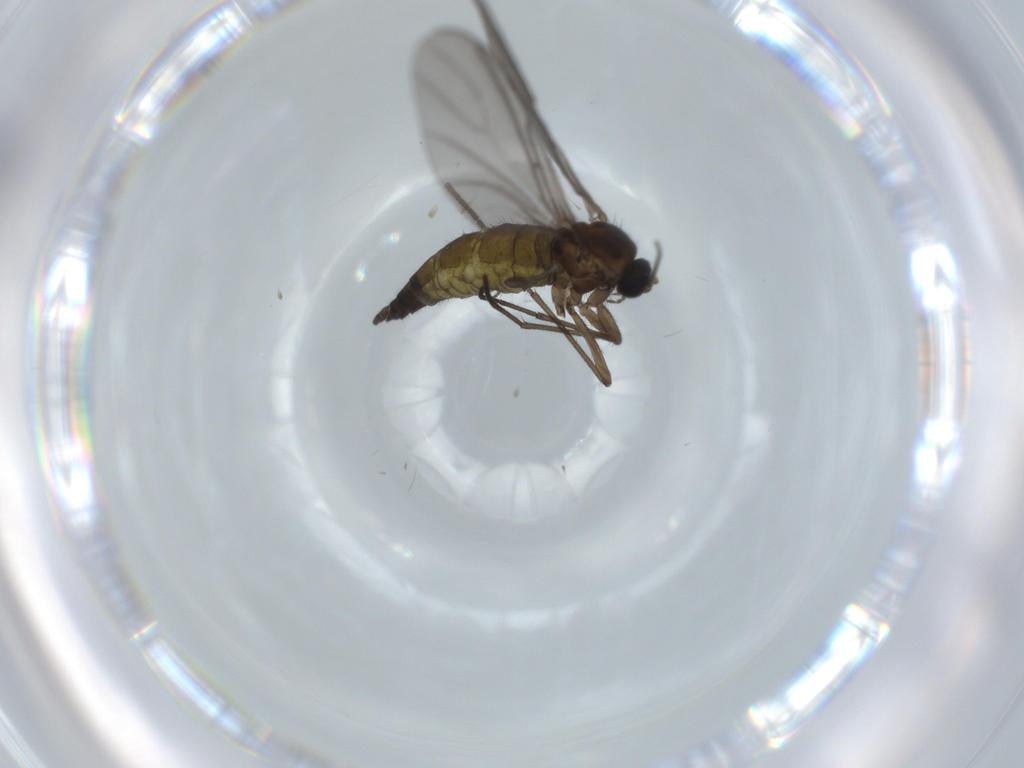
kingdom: Animalia
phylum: Arthropoda
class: Insecta
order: Diptera
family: Sciaridae
